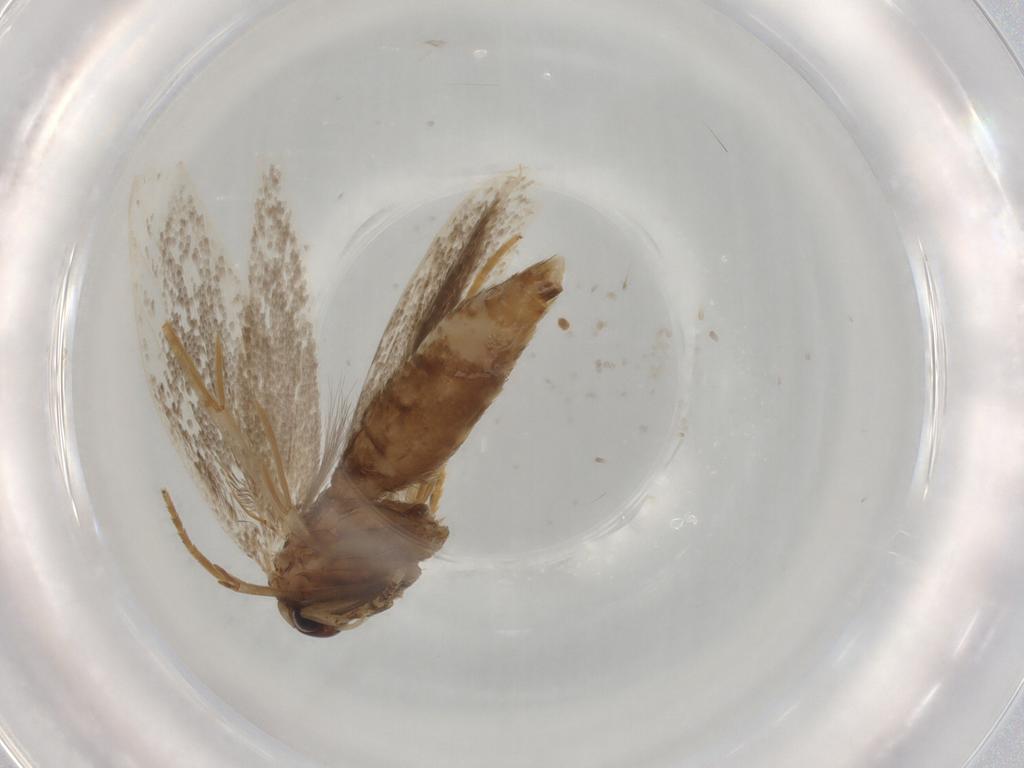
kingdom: Animalia
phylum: Arthropoda
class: Insecta
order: Lepidoptera
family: Elachistidae
